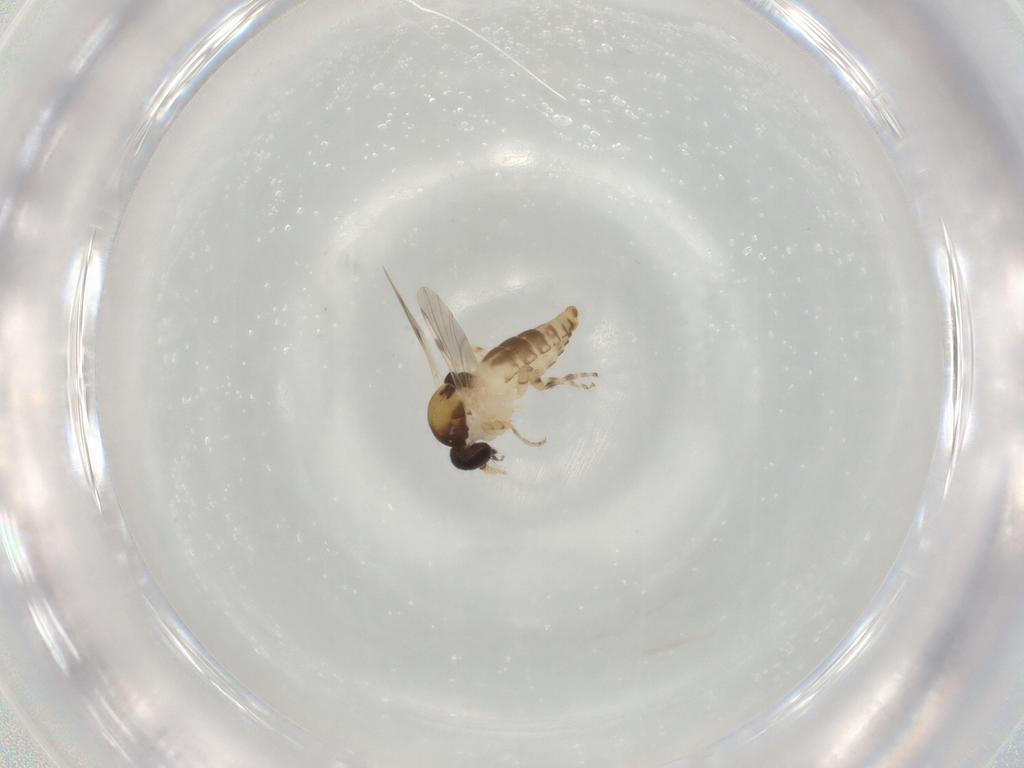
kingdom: Animalia
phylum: Arthropoda
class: Insecta
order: Diptera
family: Ceratopogonidae
